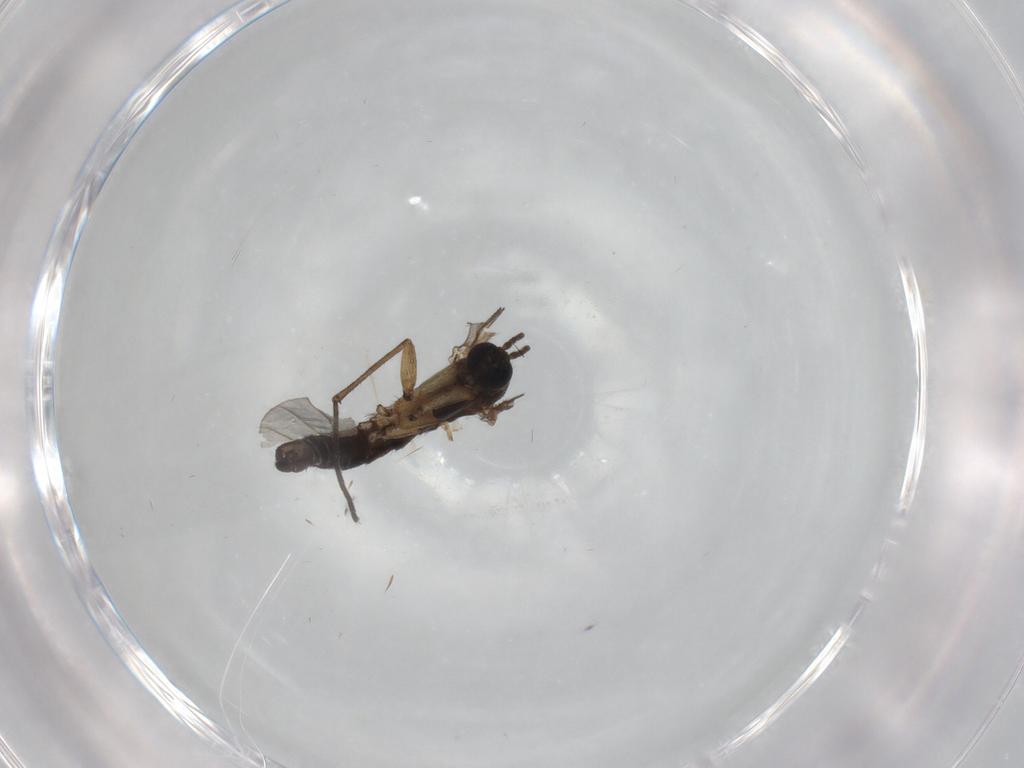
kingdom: Animalia
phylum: Arthropoda
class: Insecta
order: Diptera
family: Sciaridae
